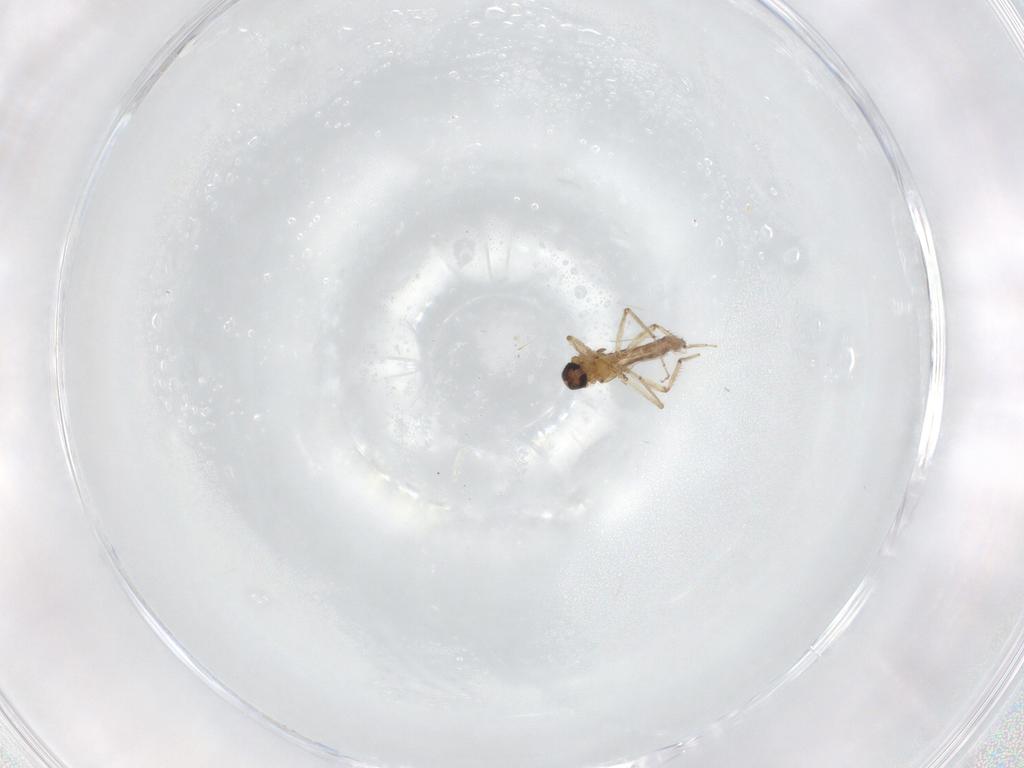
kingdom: Animalia
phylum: Arthropoda
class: Insecta
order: Diptera
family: Ceratopogonidae
